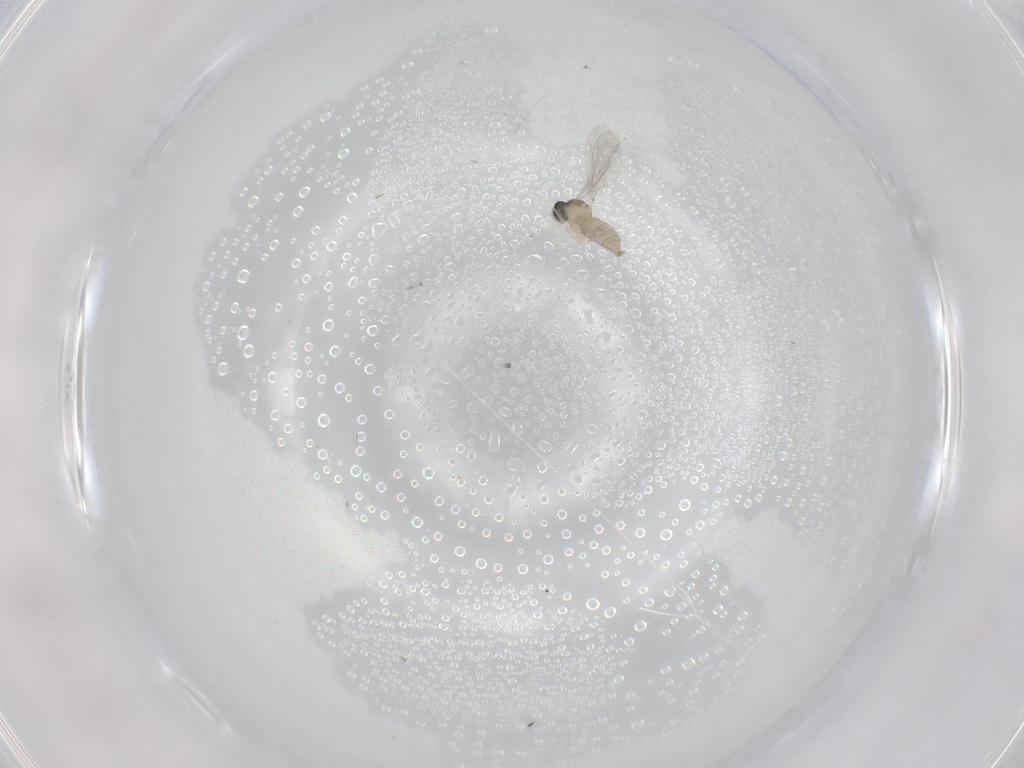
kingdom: Animalia
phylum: Arthropoda
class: Insecta
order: Diptera
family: Cecidomyiidae
